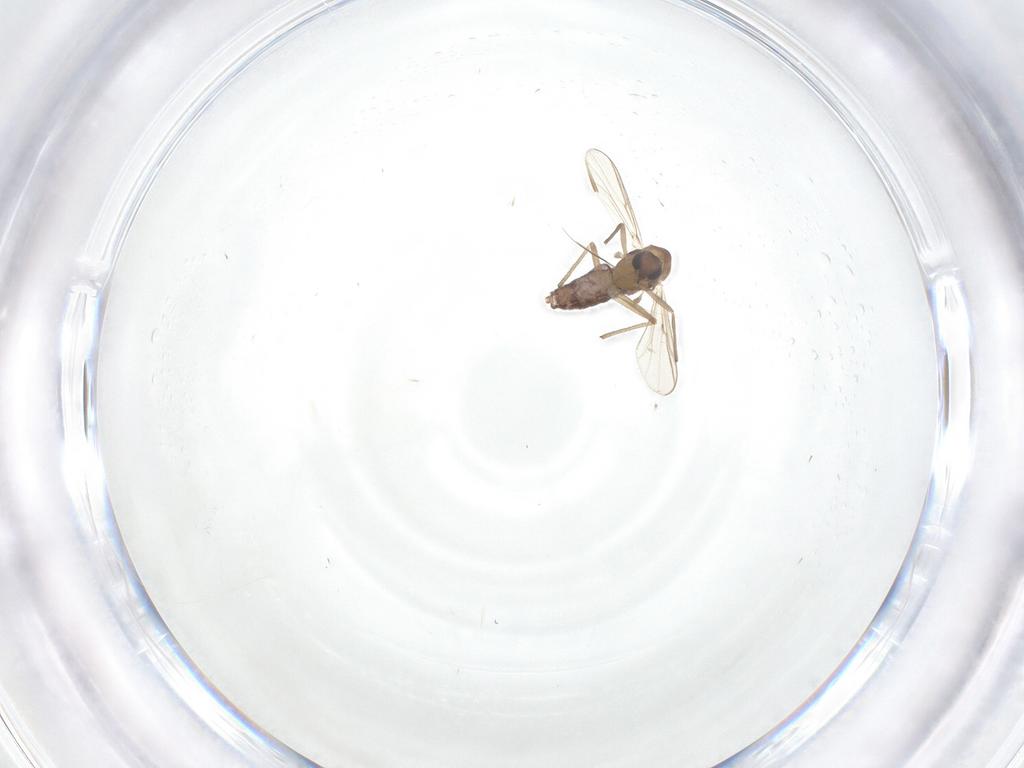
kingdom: Animalia
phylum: Arthropoda
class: Insecta
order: Diptera
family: Chironomidae
